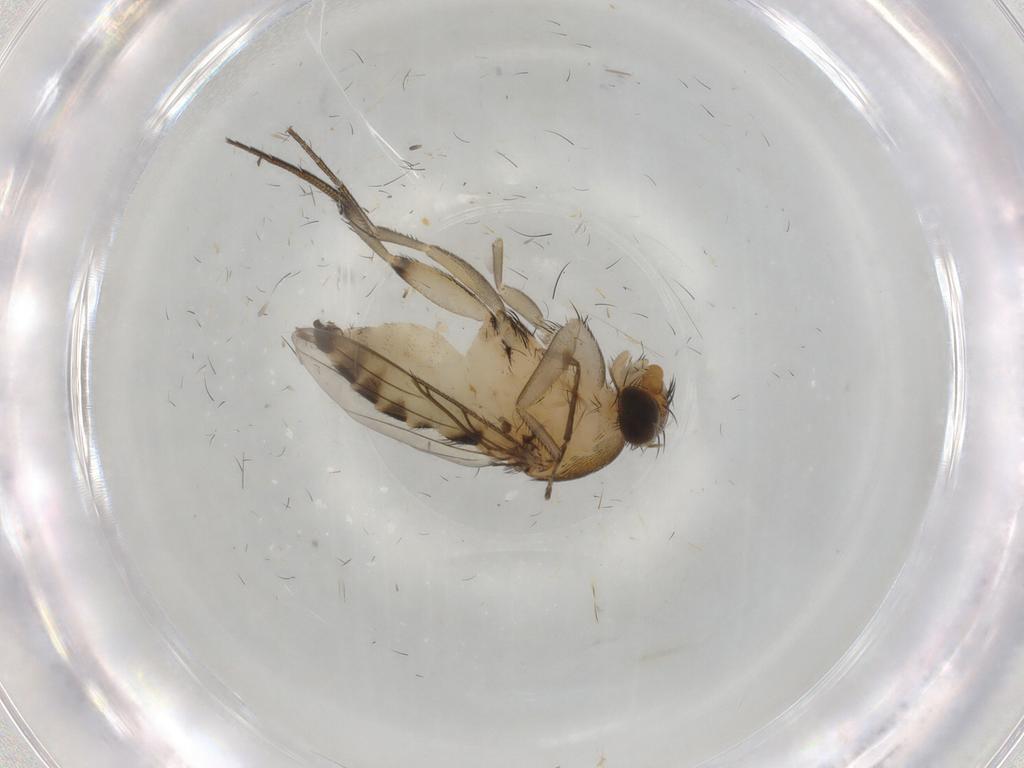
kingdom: Animalia
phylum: Arthropoda
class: Insecta
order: Diptera
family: Phoridae
